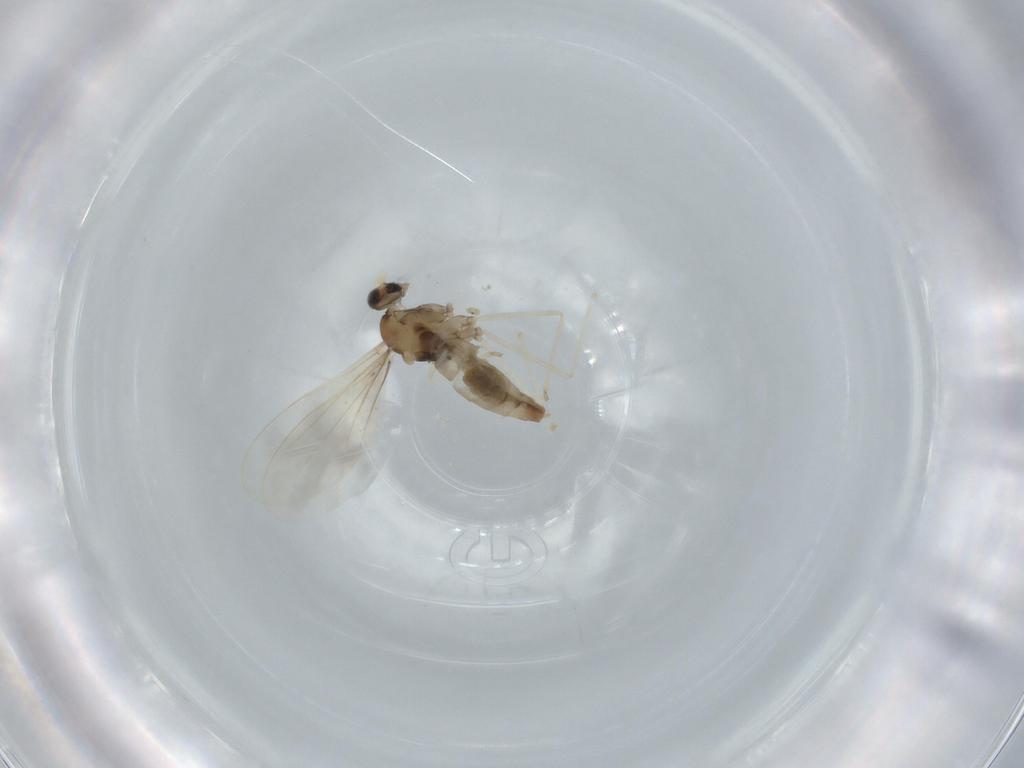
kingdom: Animalia
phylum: Arthropoda
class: Insecta
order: Diptera
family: Cecidomyiidae
